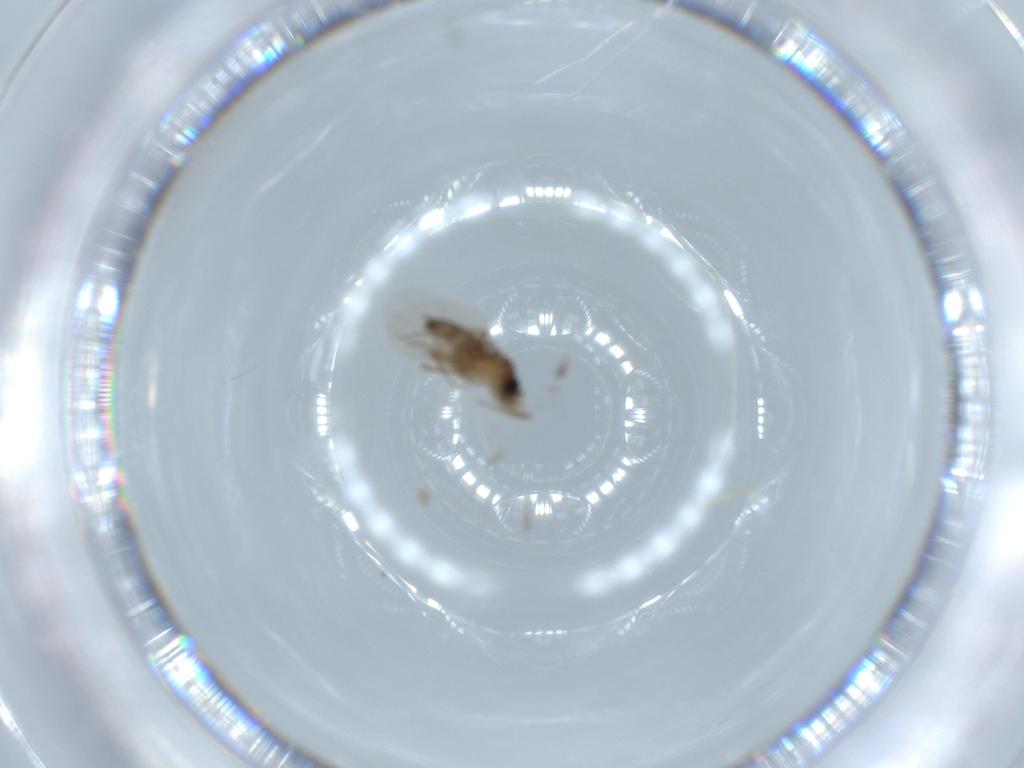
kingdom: Animalia
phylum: Arthropoda
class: Insecta
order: Diptera
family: Phoridae
